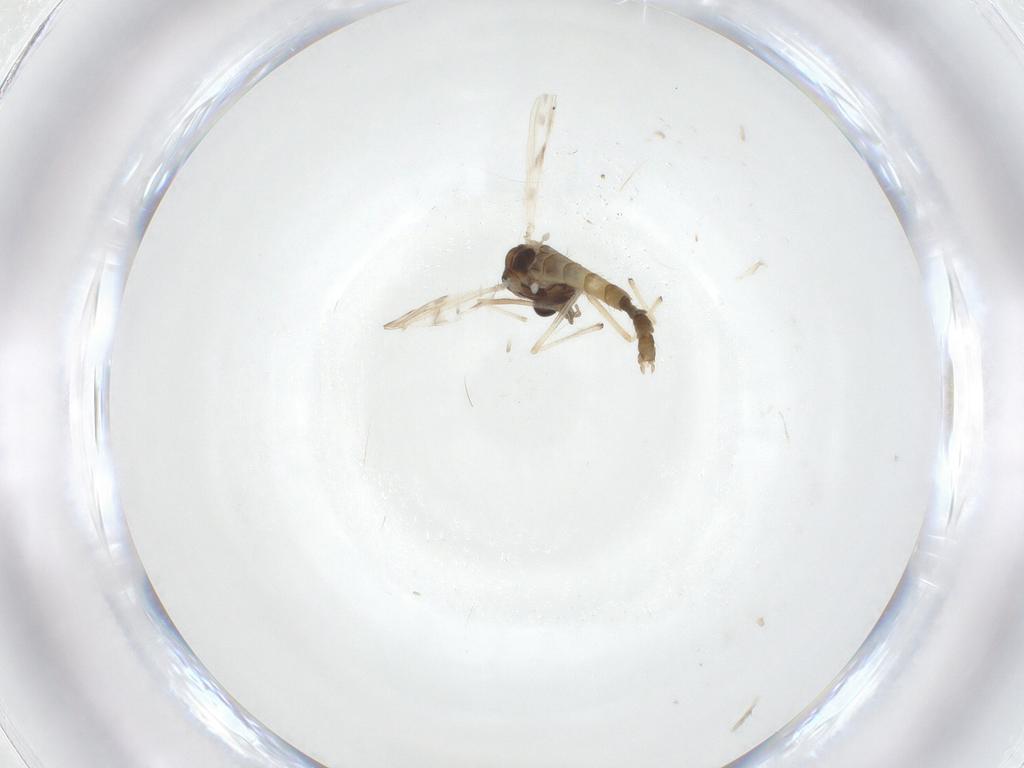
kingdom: Animalia
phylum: Arthropoda
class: Insecta
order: Diptera
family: Chironomidae
